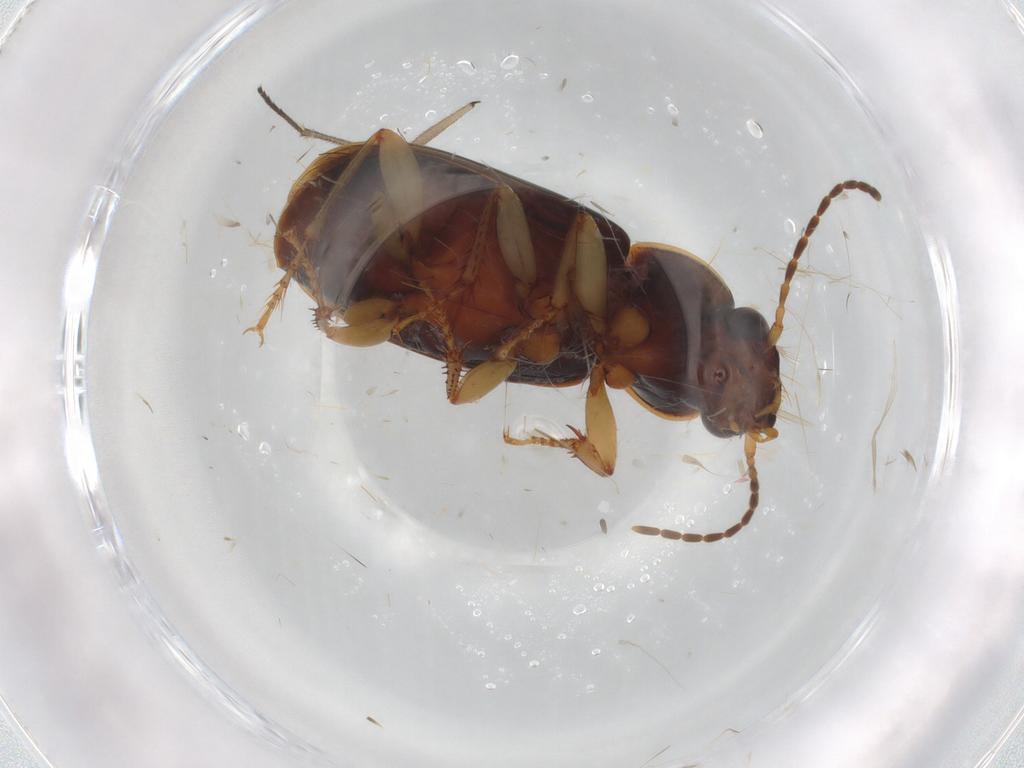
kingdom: Animalia
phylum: Arthropoda
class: Insecta
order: Coleoptera
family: Carabidae
